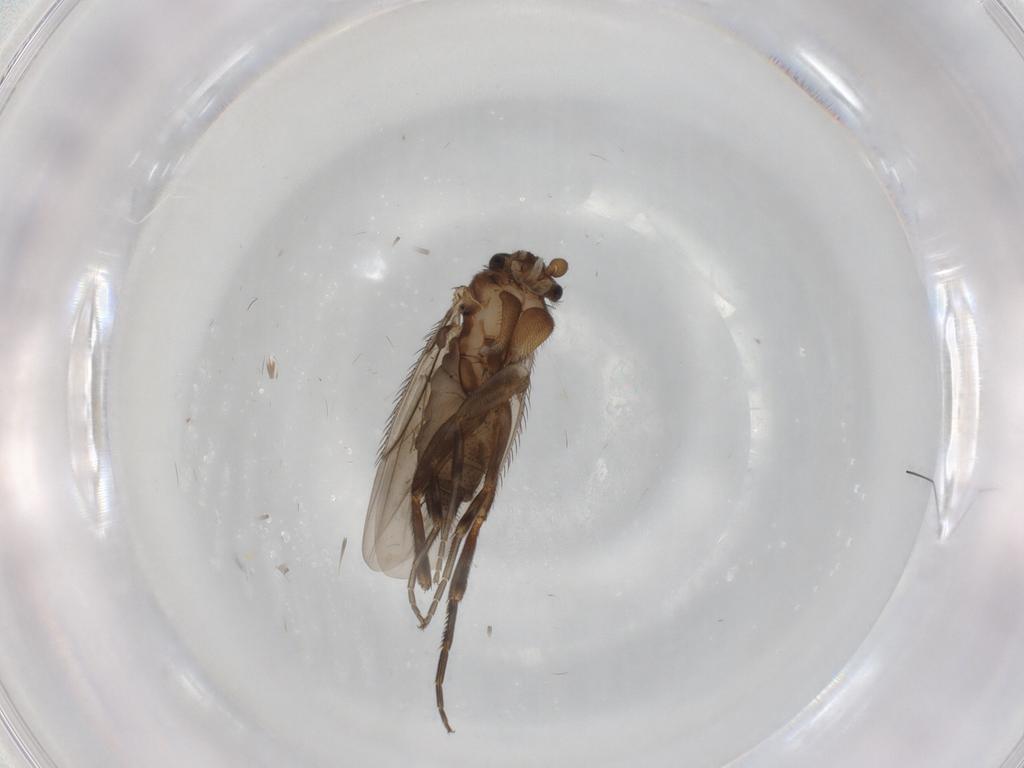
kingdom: Animalia
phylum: Arthropoda
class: Insecta
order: Diptera
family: Phoridae
